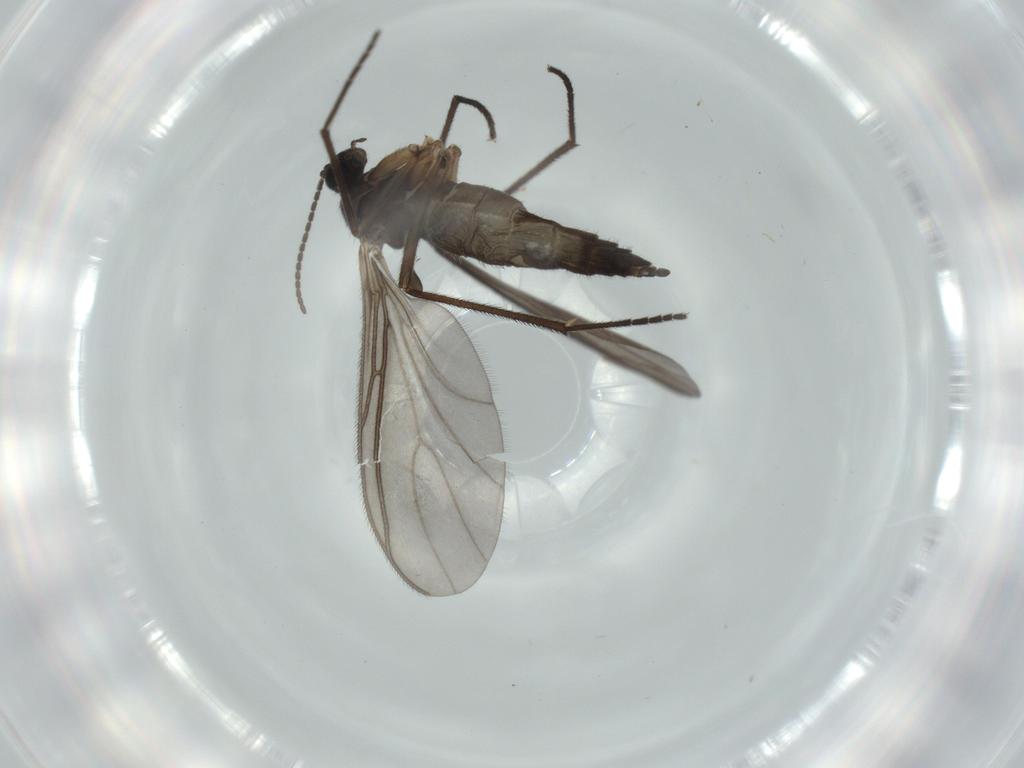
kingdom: Animalia
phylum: Arthropoda
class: Insecta
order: Diptera
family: Sciaridae
